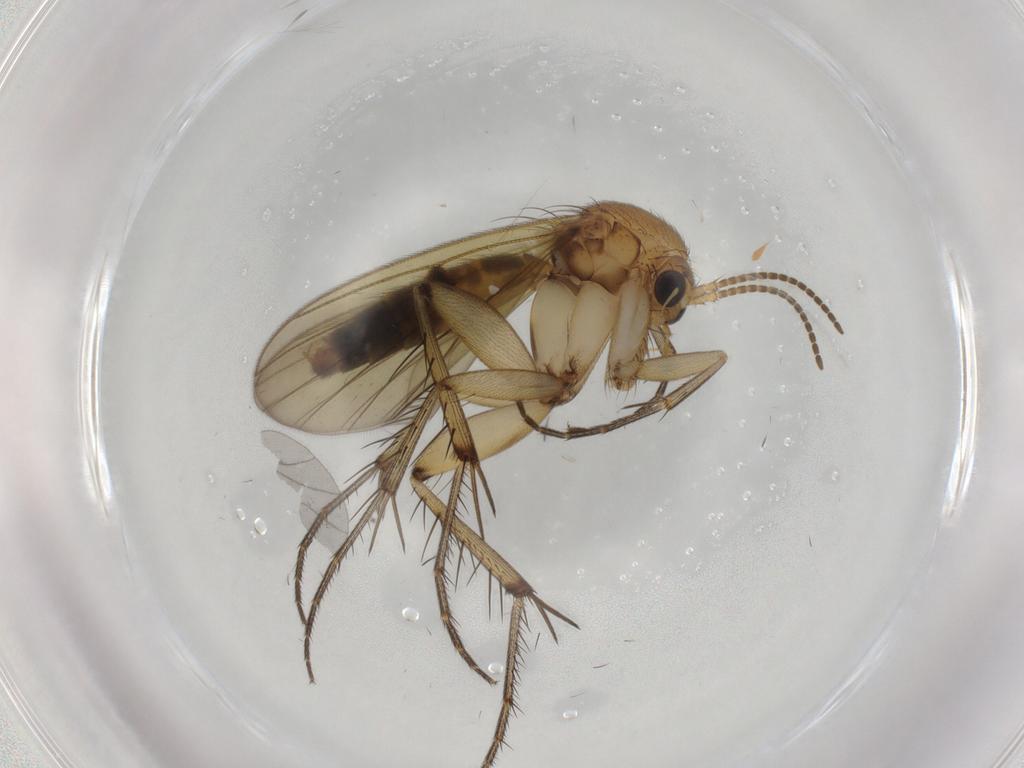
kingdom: Animalia
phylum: Arthropoda
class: Insecta
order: Diptera
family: Mycetophilidae
